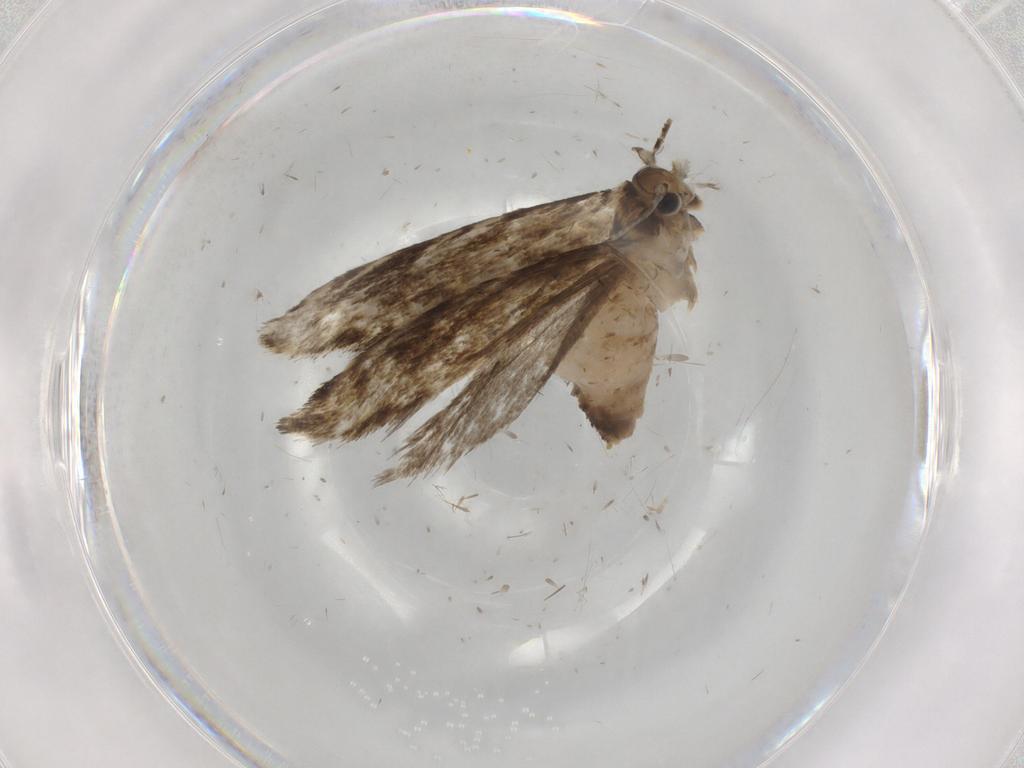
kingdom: Animalia
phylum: Arthropoda
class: Insecta
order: Lepidoptera
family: Tineidae
